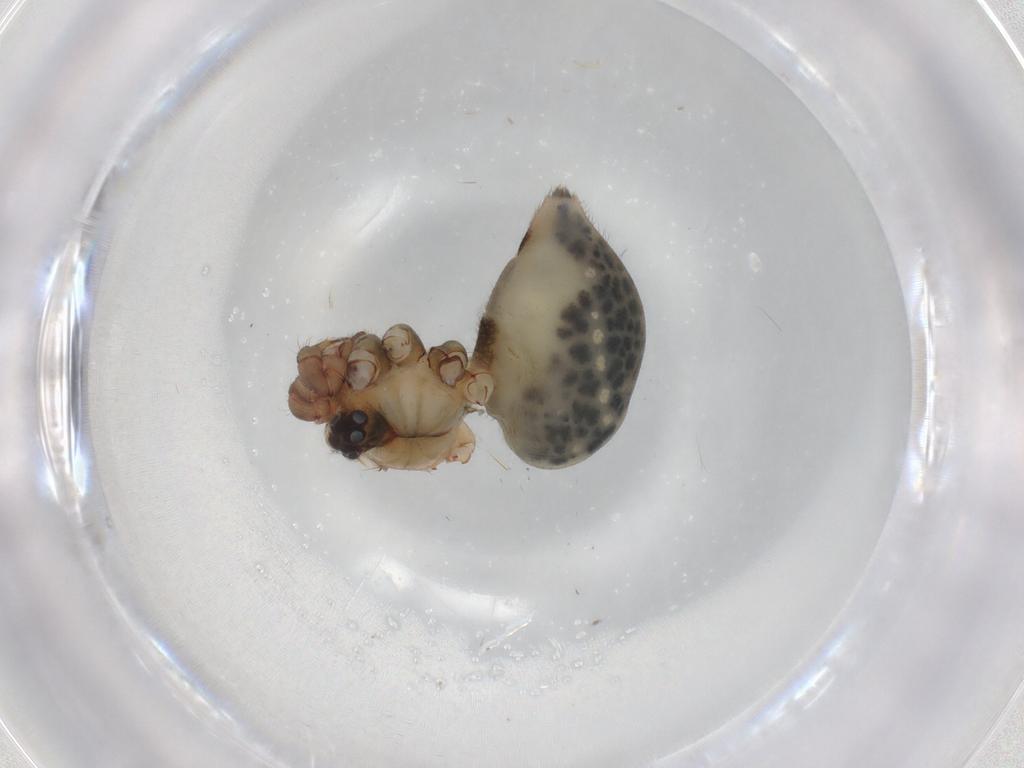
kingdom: Animalia
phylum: Arthropoda
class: Arachnida
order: Araneae
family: Pholcidae
